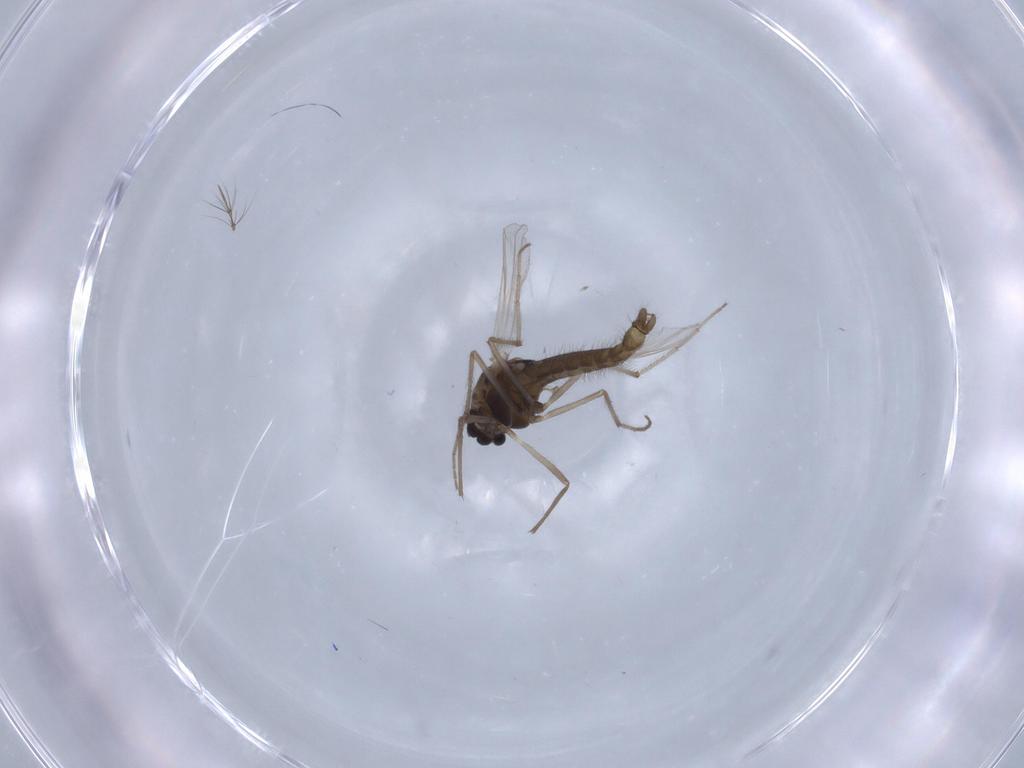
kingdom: Animalia
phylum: Arthropoda
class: Insecta
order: Diptera
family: Chironomidae
